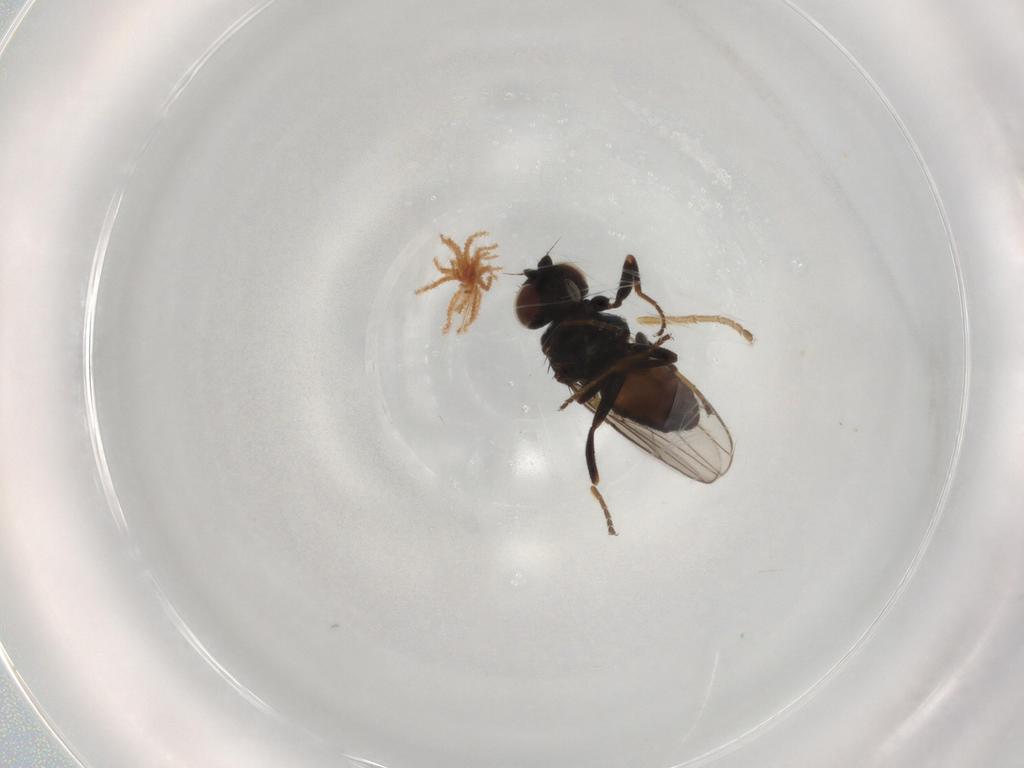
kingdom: Animalia
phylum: Arthropoda
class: Insecta
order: Diptera
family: Chloropidae
